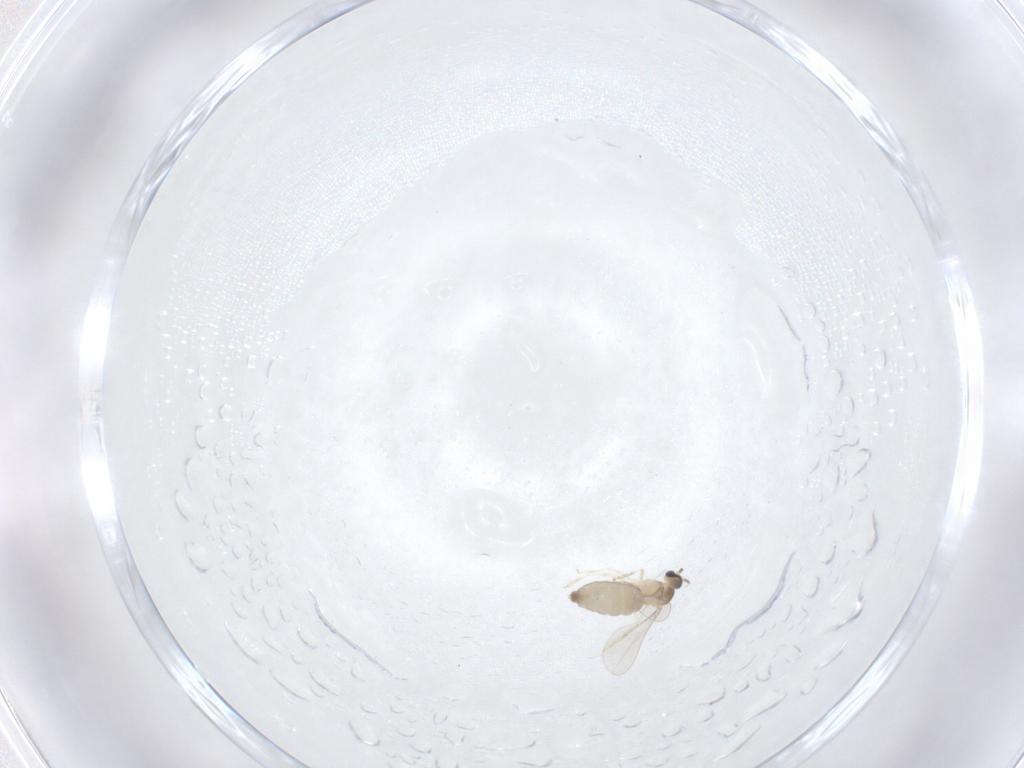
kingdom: Animalia
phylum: Arthropoda
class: Insecta
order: Diptera
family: Cecidomyiidae
